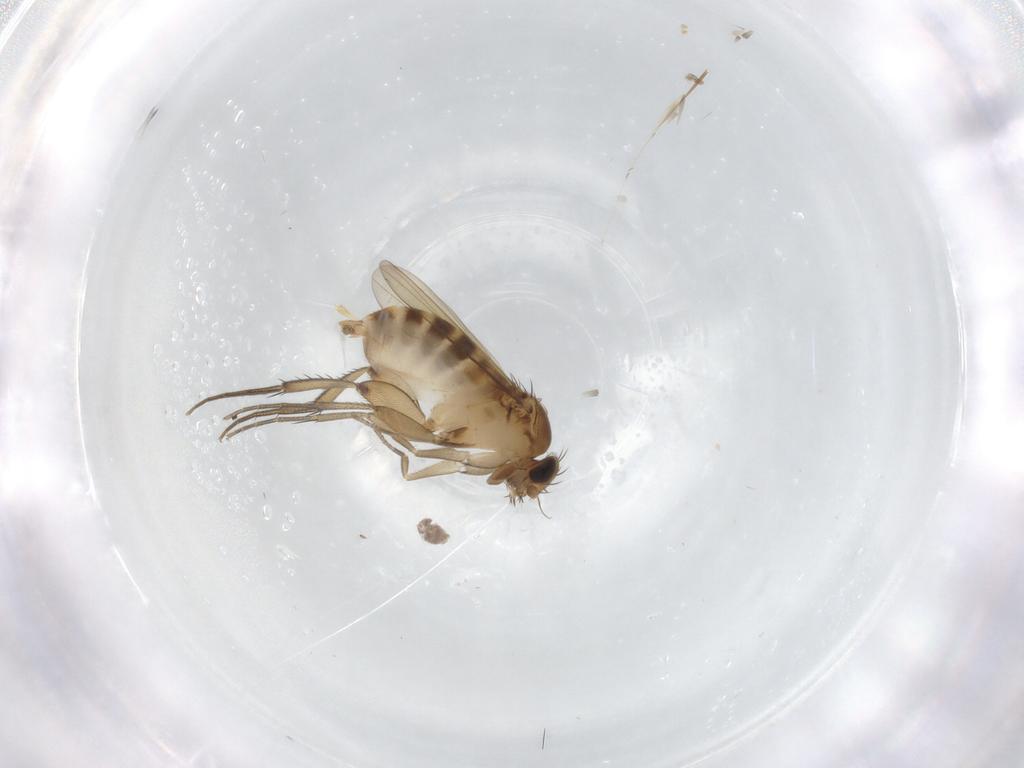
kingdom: Animalia
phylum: Arthropoda
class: Insecta
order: Diptera
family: Phoridae
